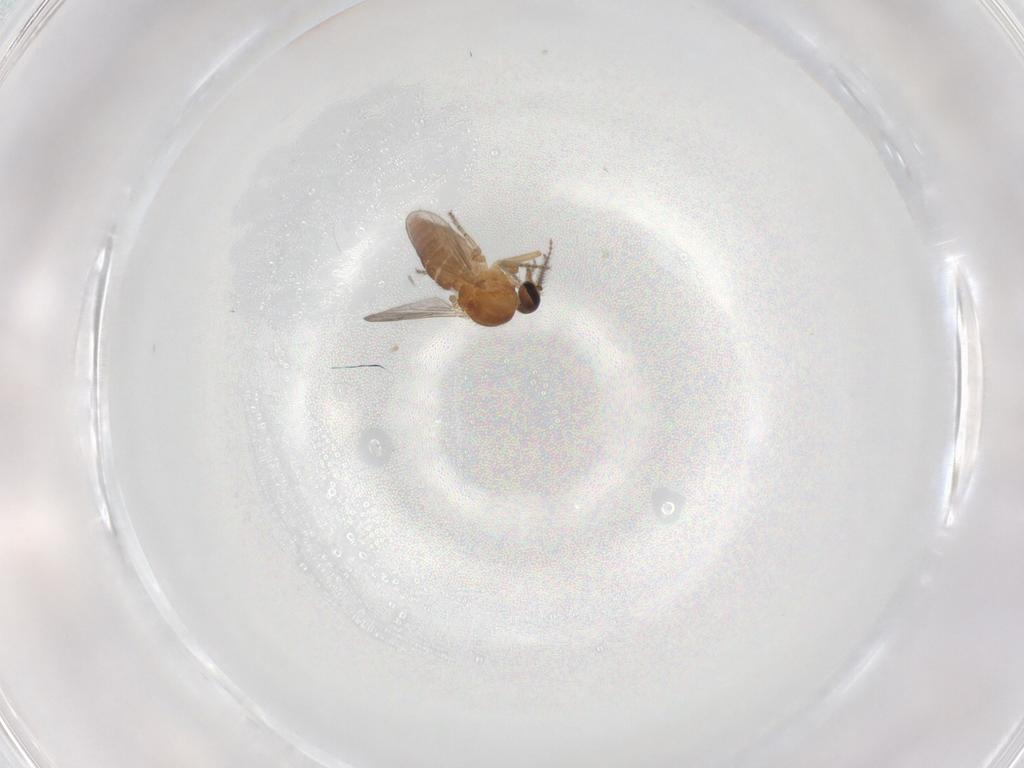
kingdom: Animalia
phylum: Arthropoda
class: Insecta
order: Diptera
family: Ceratopogonidae
